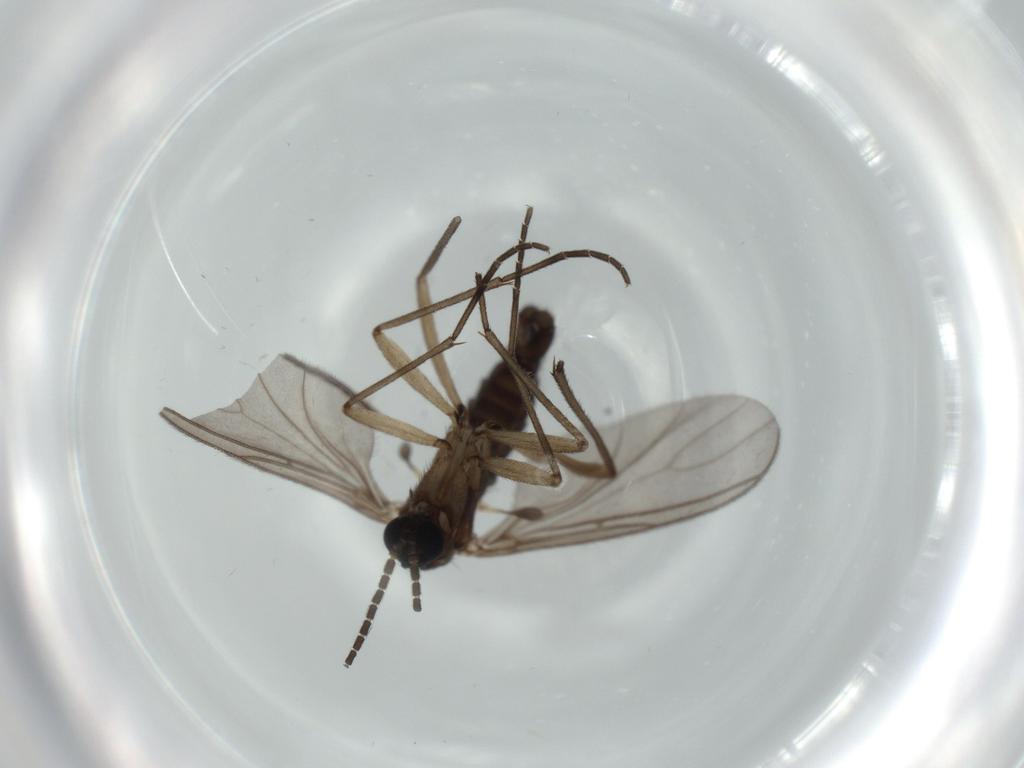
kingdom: Animalia
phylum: Arthropoda
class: Insecta
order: Diptera
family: Sciaridae
